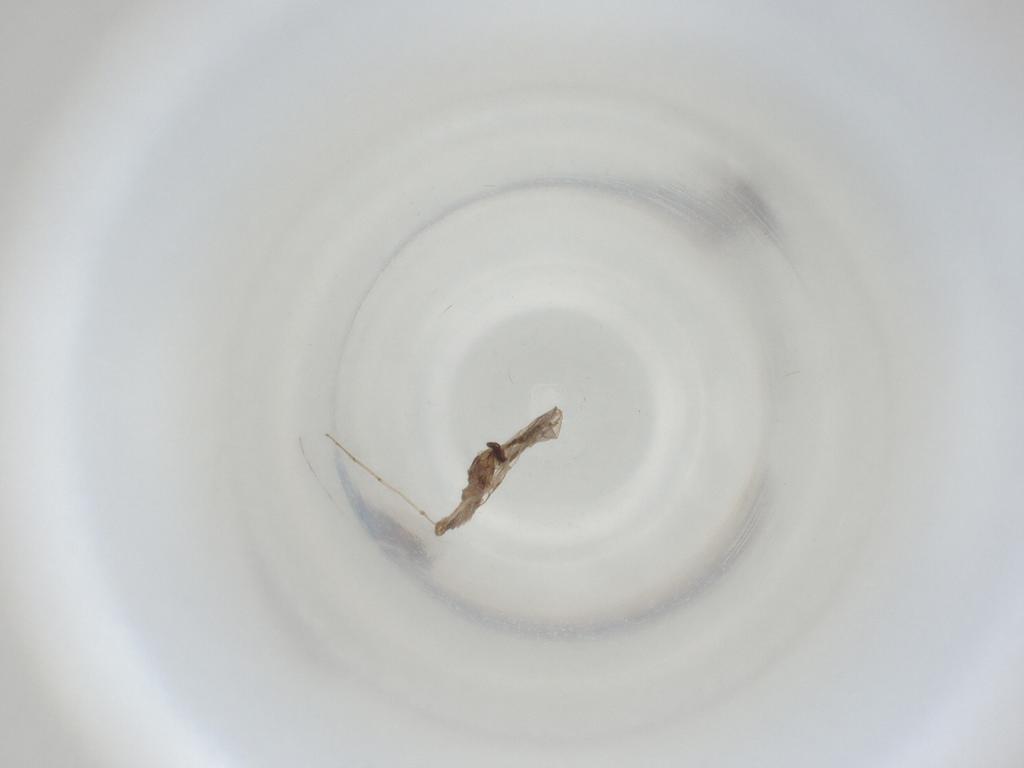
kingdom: Animalia
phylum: Arthropoda
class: Insecta
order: Diptera
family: Cecidomyiidae
